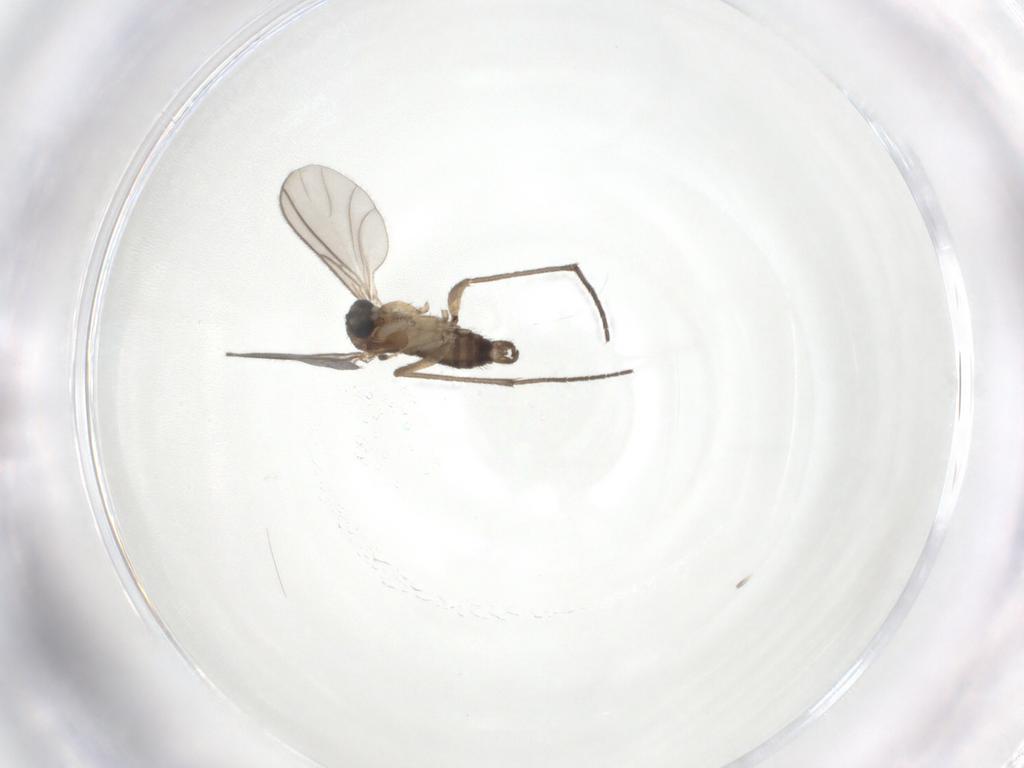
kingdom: Animalia
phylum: Arthropoda
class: Insecta
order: Diptera
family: Sciaridae
